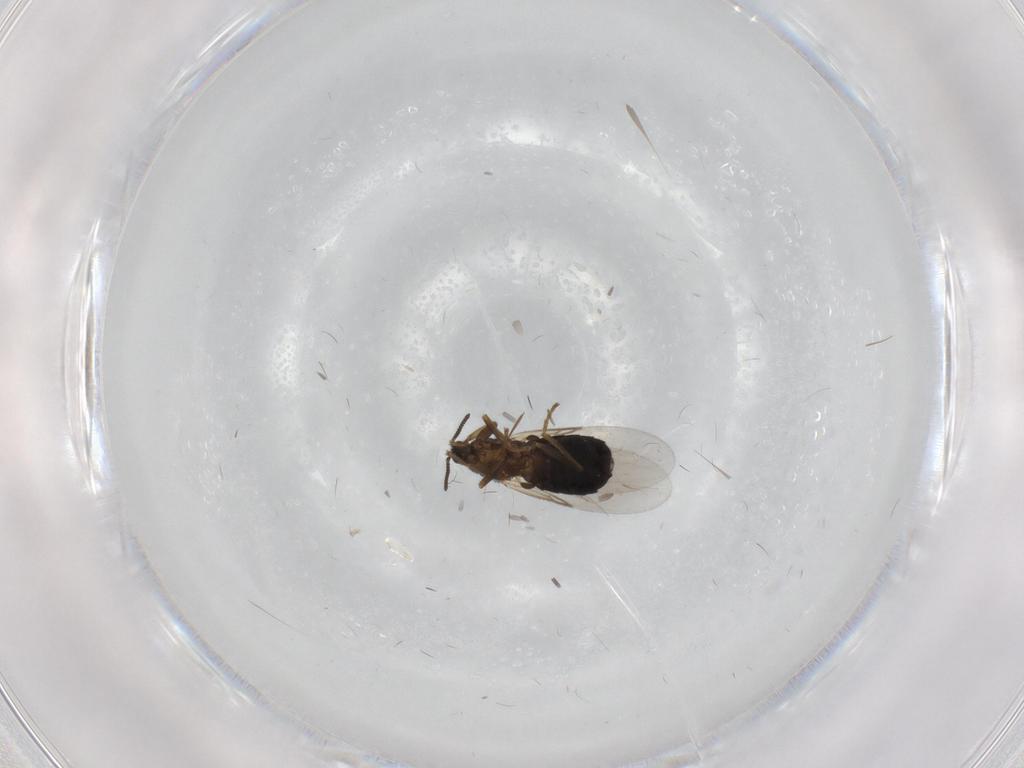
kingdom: Animalia
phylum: Arthropoda
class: Insecta
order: Diptera
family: Scatopsidae
